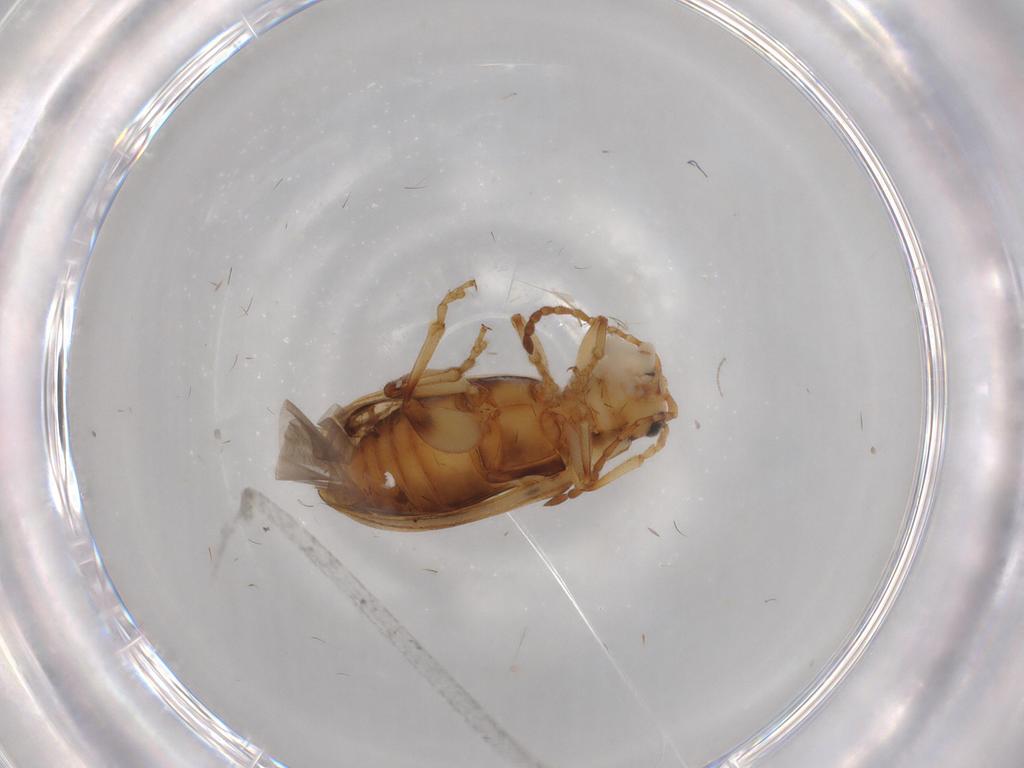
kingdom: Animalia
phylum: Arthropoda
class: Insecta
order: Coleoptera
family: Chrysomelidae
